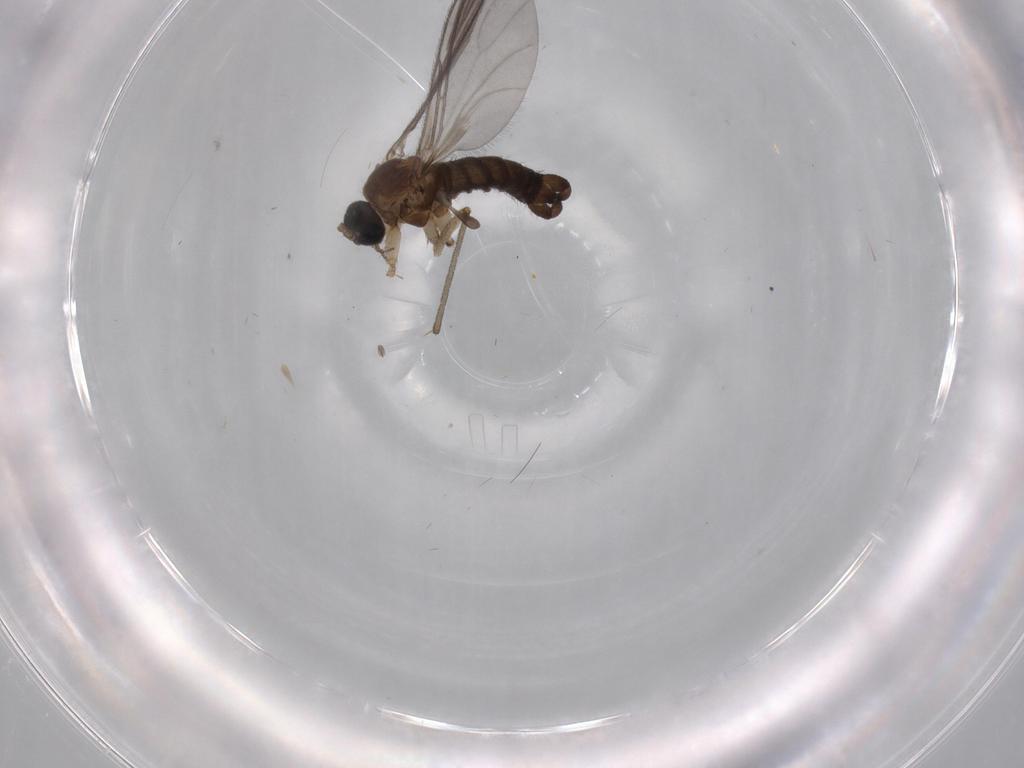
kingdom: Animalia
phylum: Arthropoda
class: Insecta
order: Diptera
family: Sciaridae
